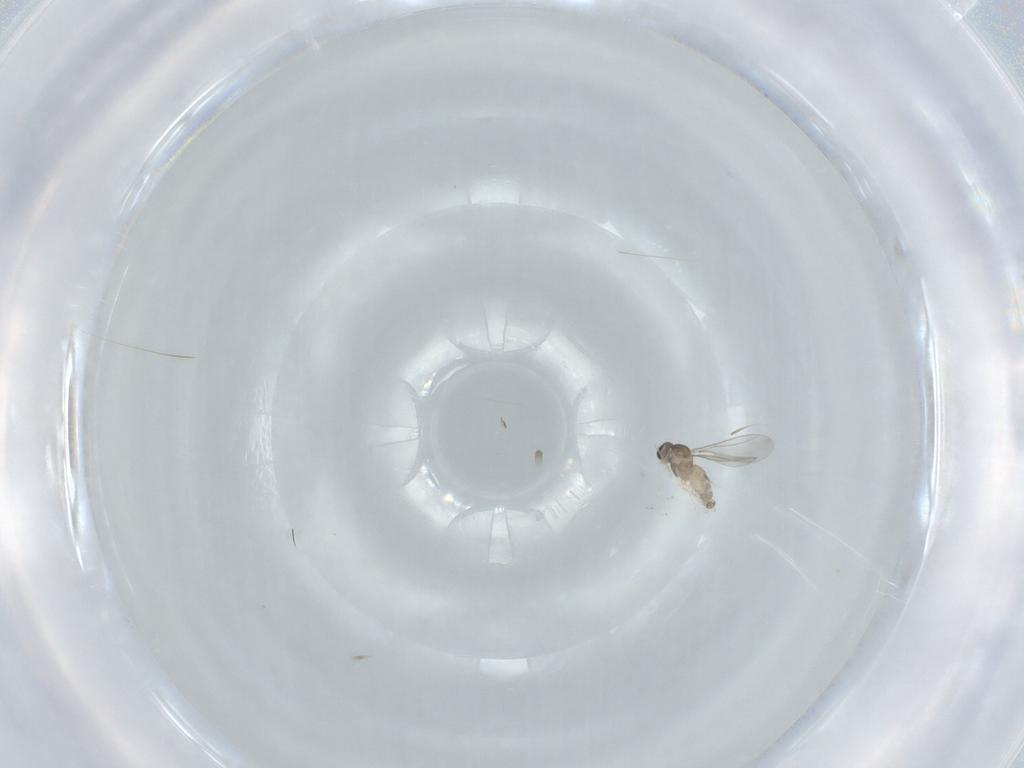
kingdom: Animalia
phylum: Arthropoda
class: Insecta
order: Diptera
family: Cecidomyiidae
